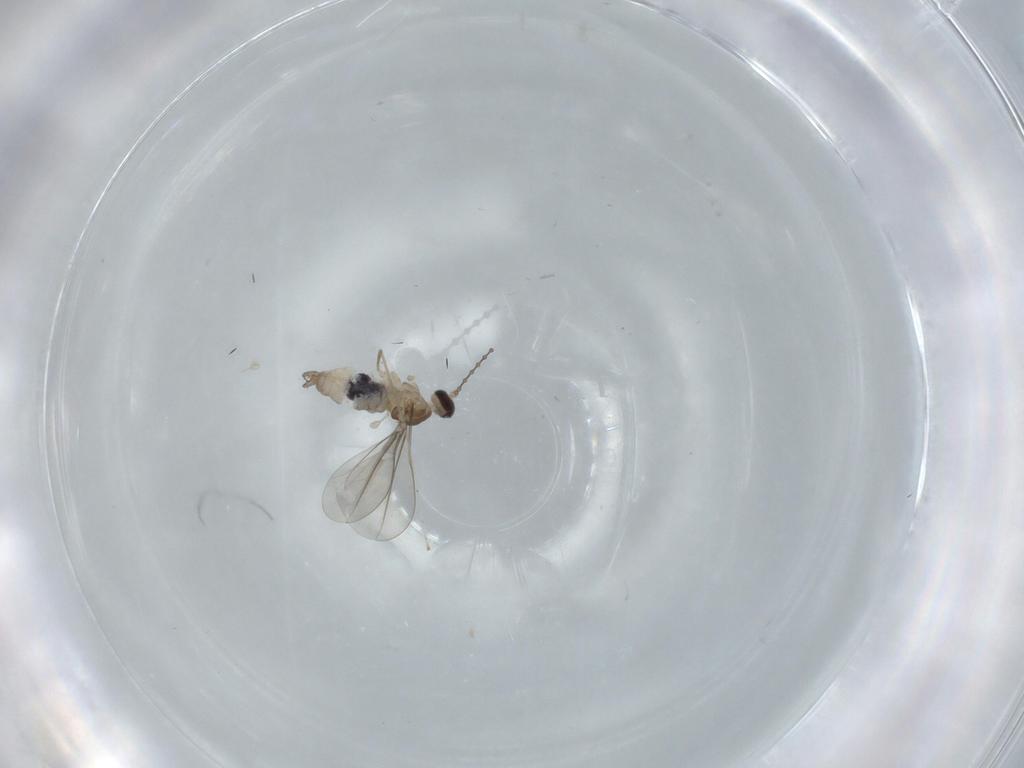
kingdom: Animalia
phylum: Arthropoda
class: Insecta
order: Diptera
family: Cecidomyiidae
